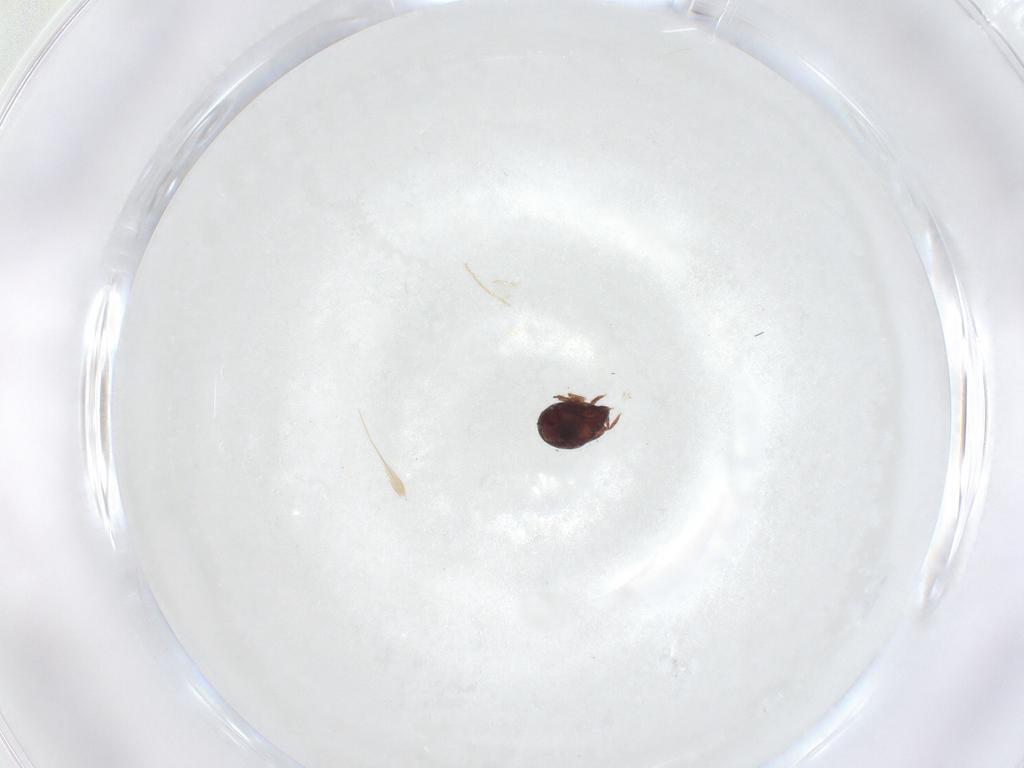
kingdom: Animalia
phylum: Arthropoda
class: Arachnida
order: Sarcoptiformes
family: Humerobatidae
